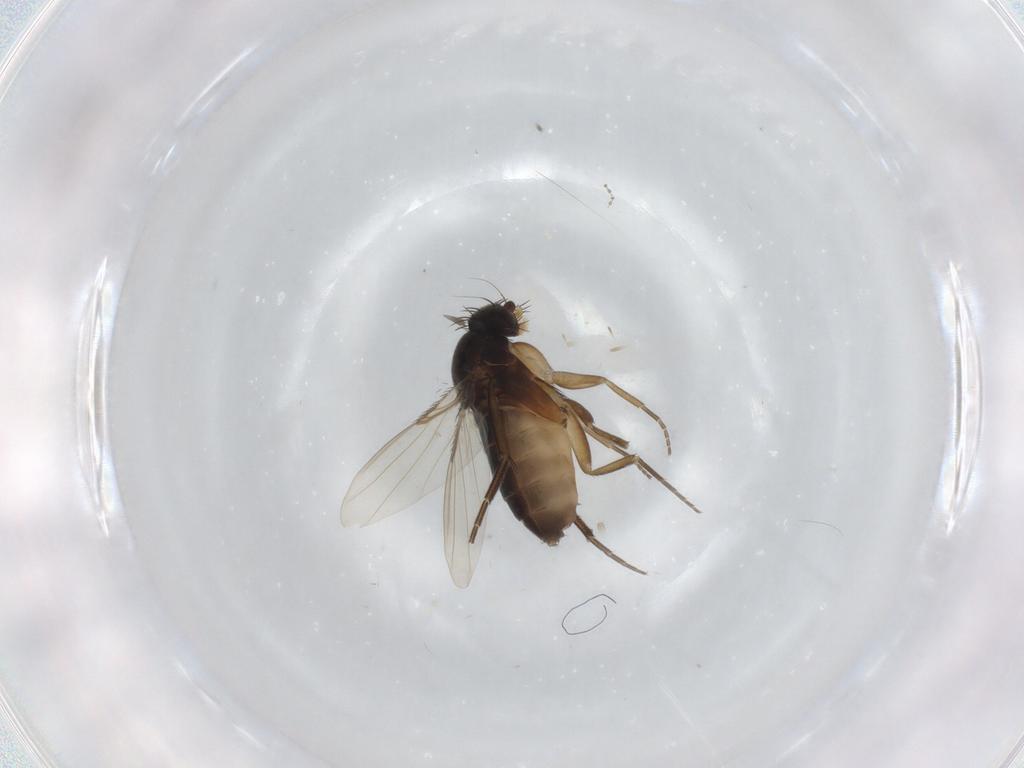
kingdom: Animalia
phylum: Arthropoda
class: Insecta
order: Diptera
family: Phoridae
